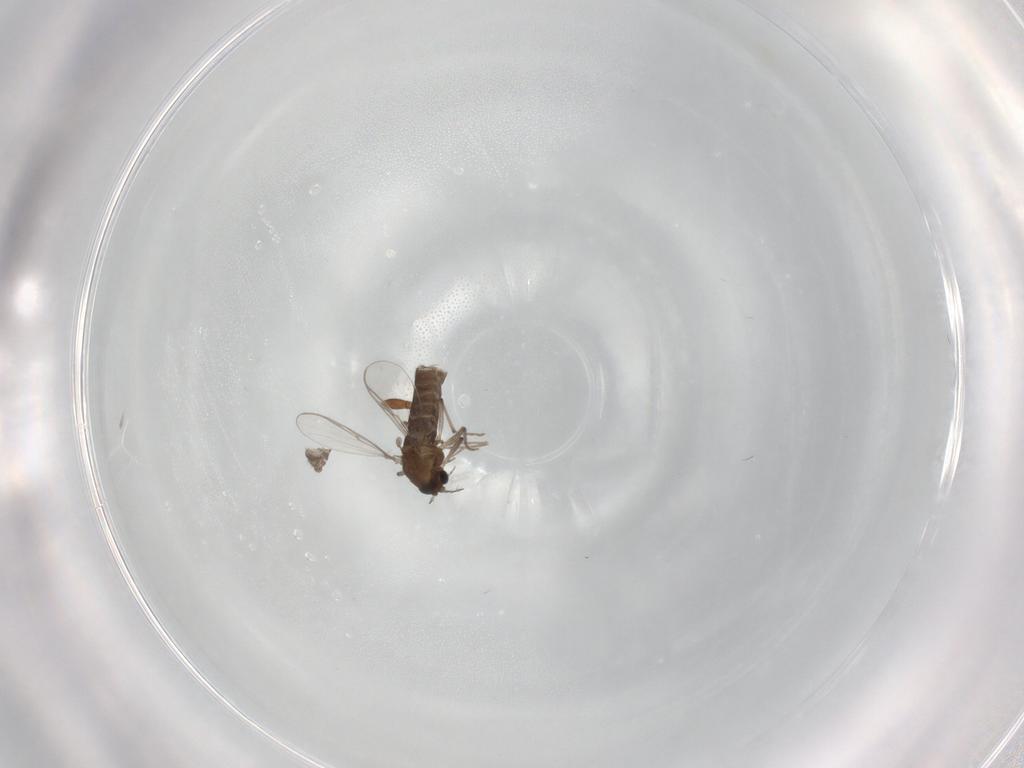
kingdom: Animalia
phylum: Arthropoda
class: Insecta
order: Diptera
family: Chironomidae
